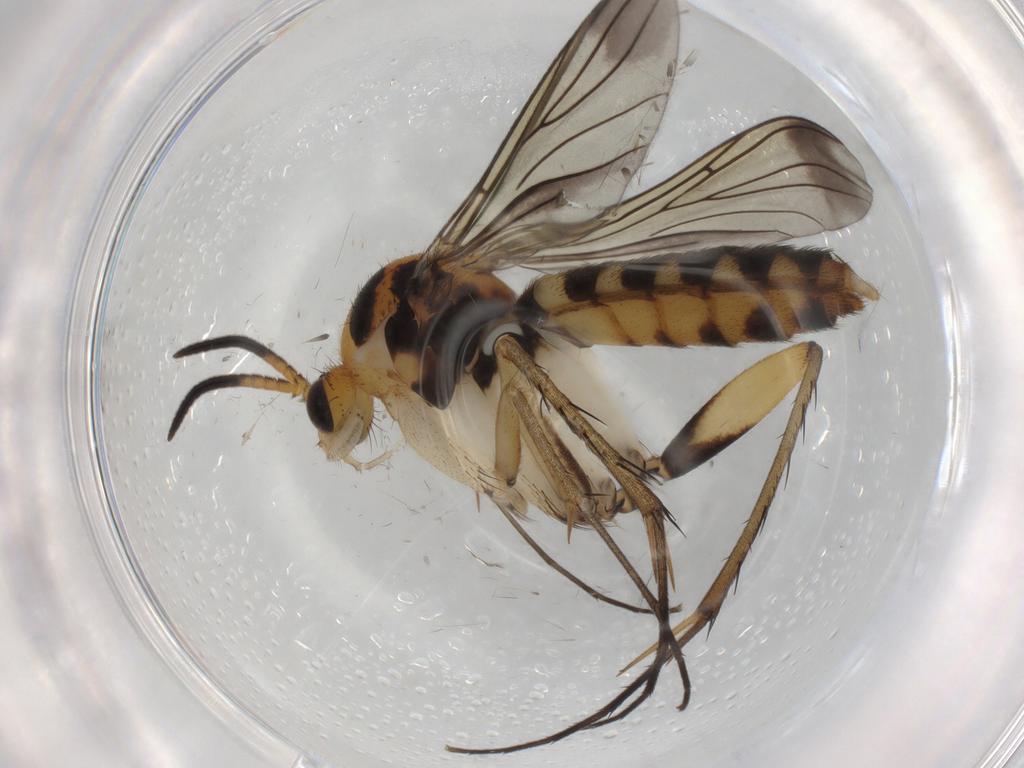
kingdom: Animalia
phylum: Arthropoda
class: Insecta
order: Diptera
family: Mycetophilidae
